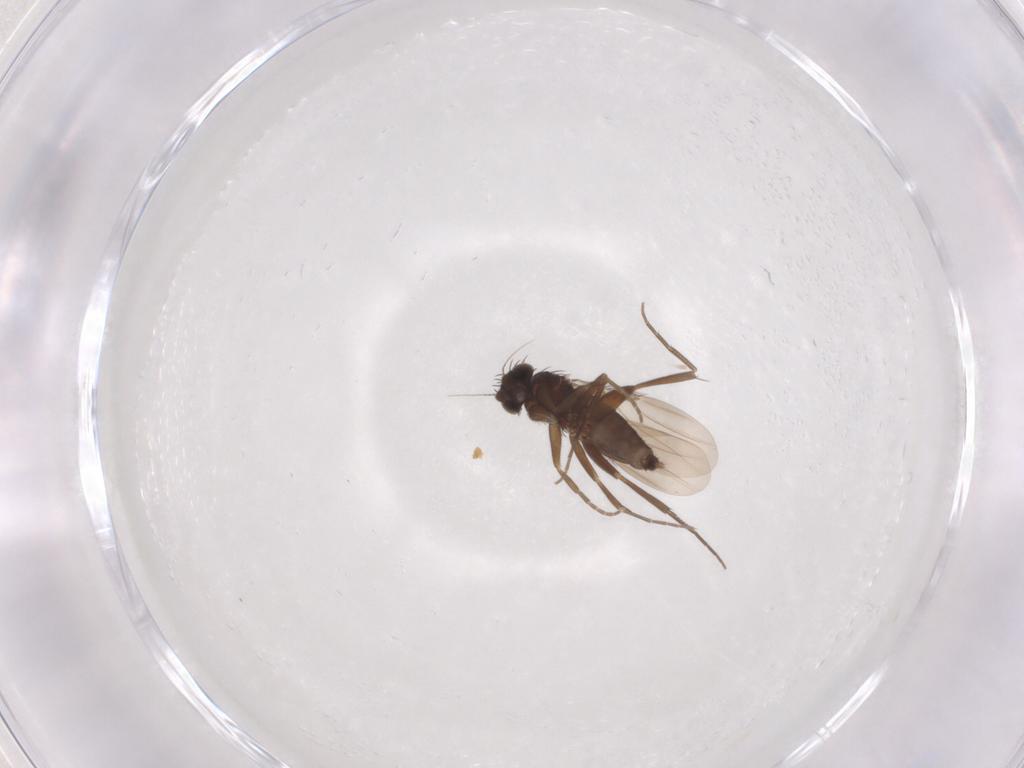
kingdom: Animalia
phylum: Arthropoda
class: Insecta
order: Diptera
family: Phoridae
